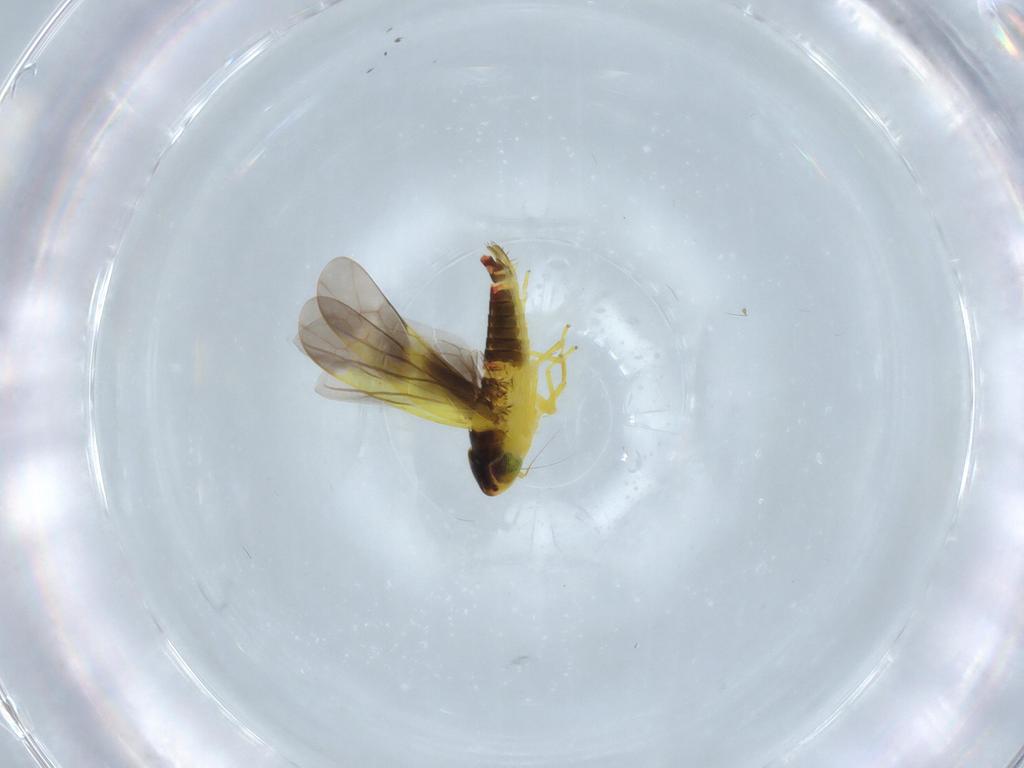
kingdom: Animalia
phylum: Arthropoda
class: Insecta
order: Hemiptera
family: Cicadellidae
